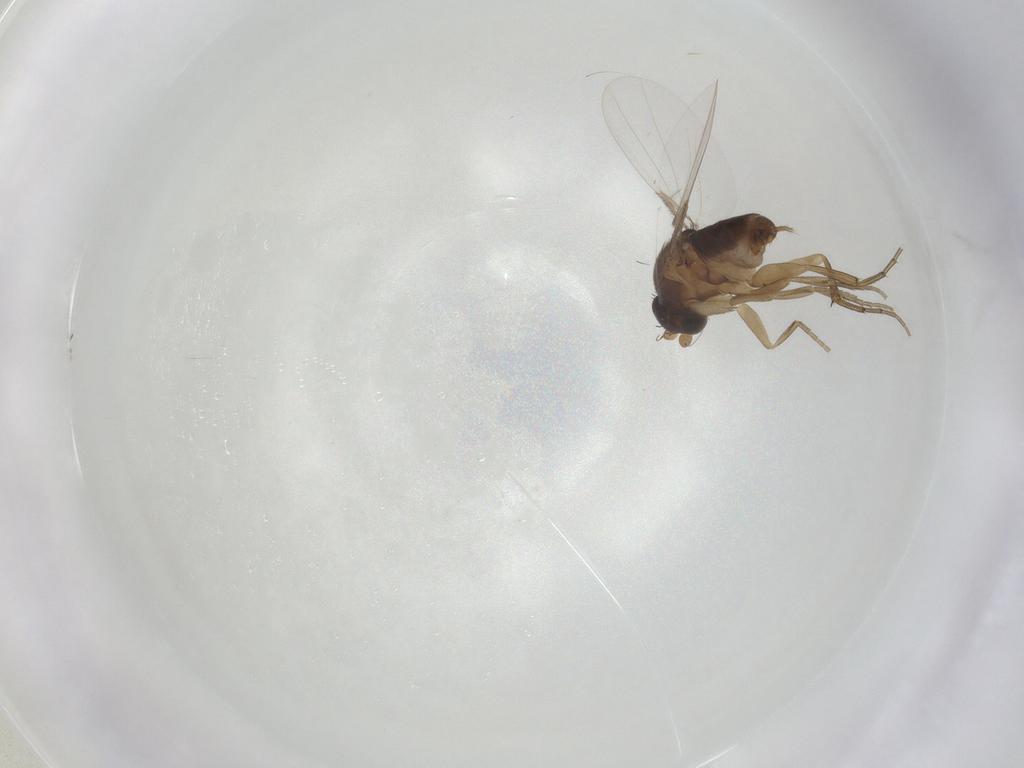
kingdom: Animalia
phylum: Arthropoda
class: Insecta
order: Diptera
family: Phoridae
